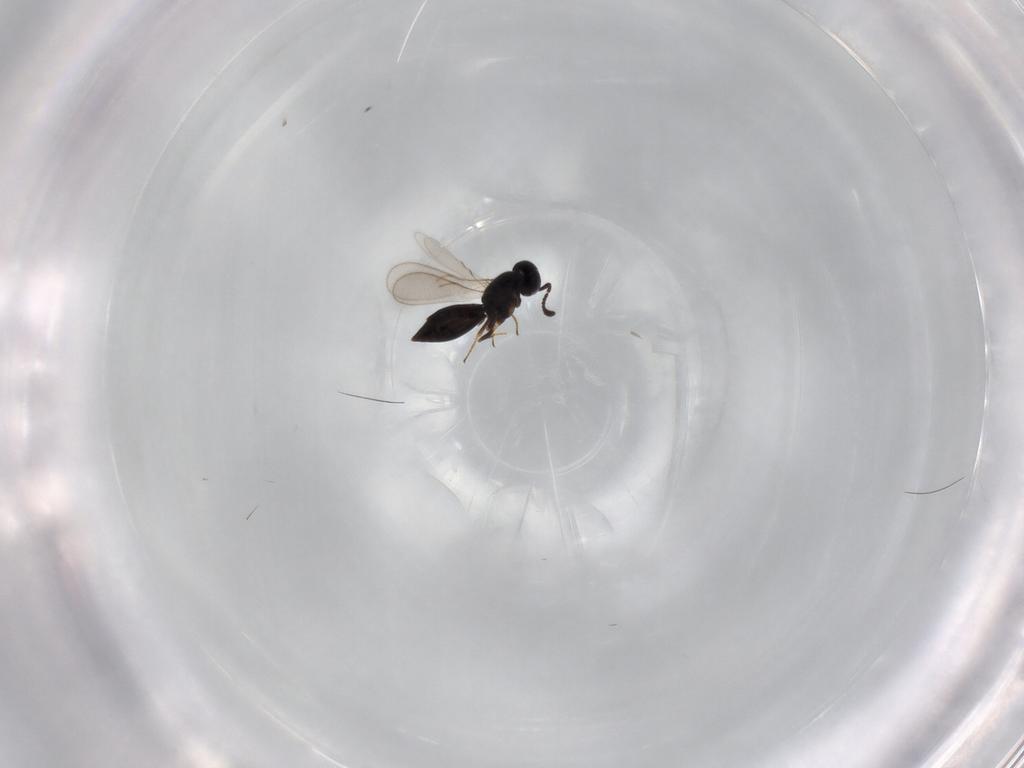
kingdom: Animalia
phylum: Arthropoda
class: Insecta
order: Hymenoptera
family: Scelionidae
